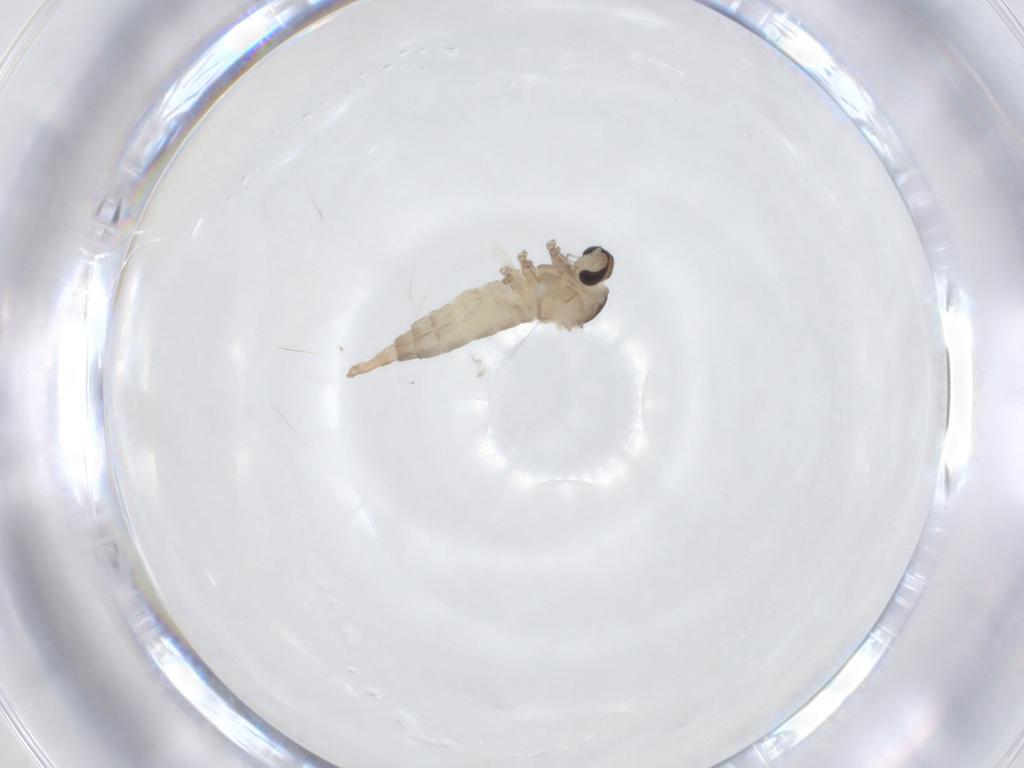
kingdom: Animalia
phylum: Arthropoda
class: Insecta
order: Diptera
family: Cecidomyiidae
